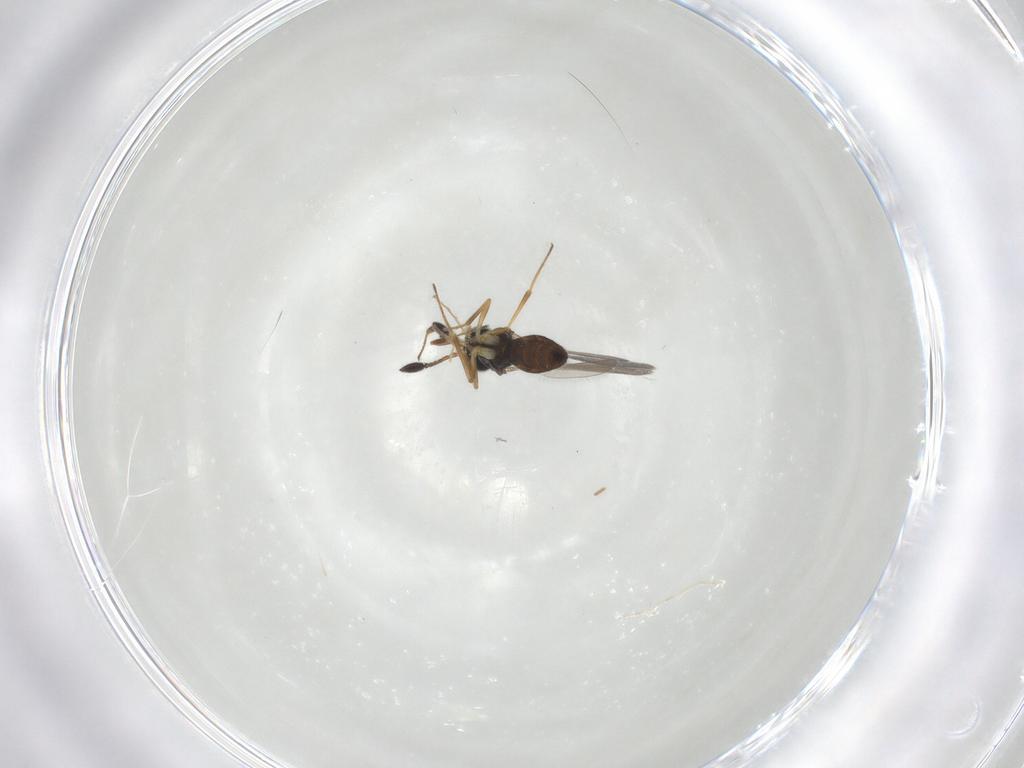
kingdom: Animalia
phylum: Arthropoda
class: Insecta
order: Hymenoptera
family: Scelionidae
